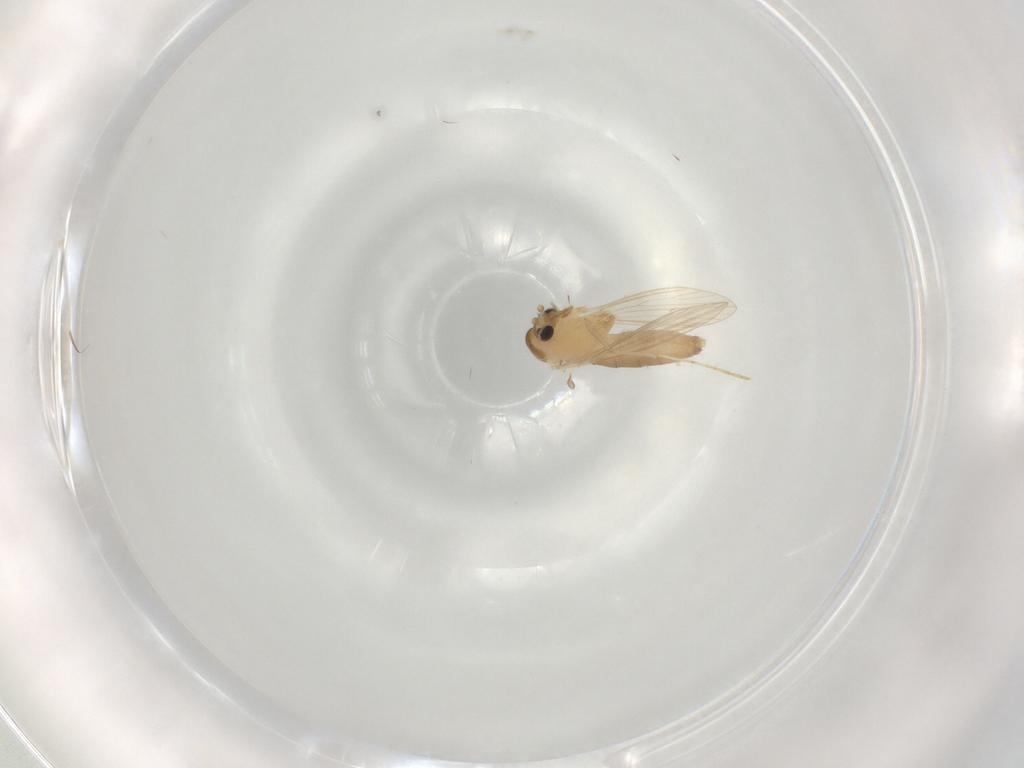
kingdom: Animalia
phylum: Arthropoda
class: Insecta
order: Diptera
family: Psychodidae
